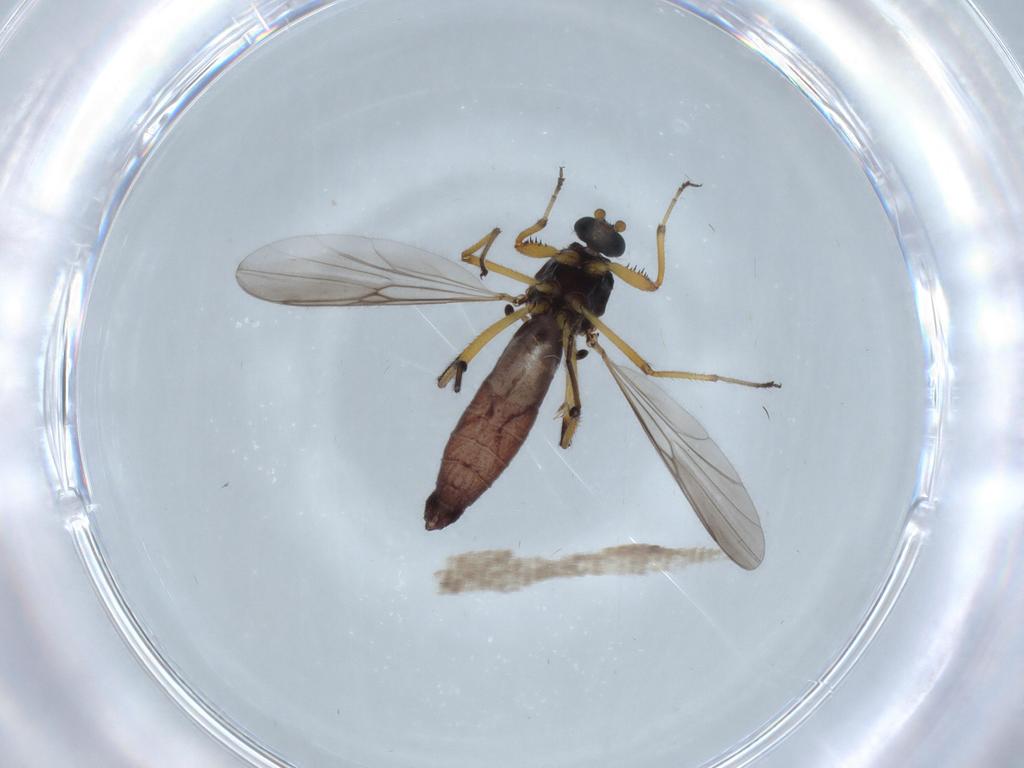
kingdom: Animalia
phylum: Arthropoda
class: Insecta
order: Diptera
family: Ceratopogonidae
